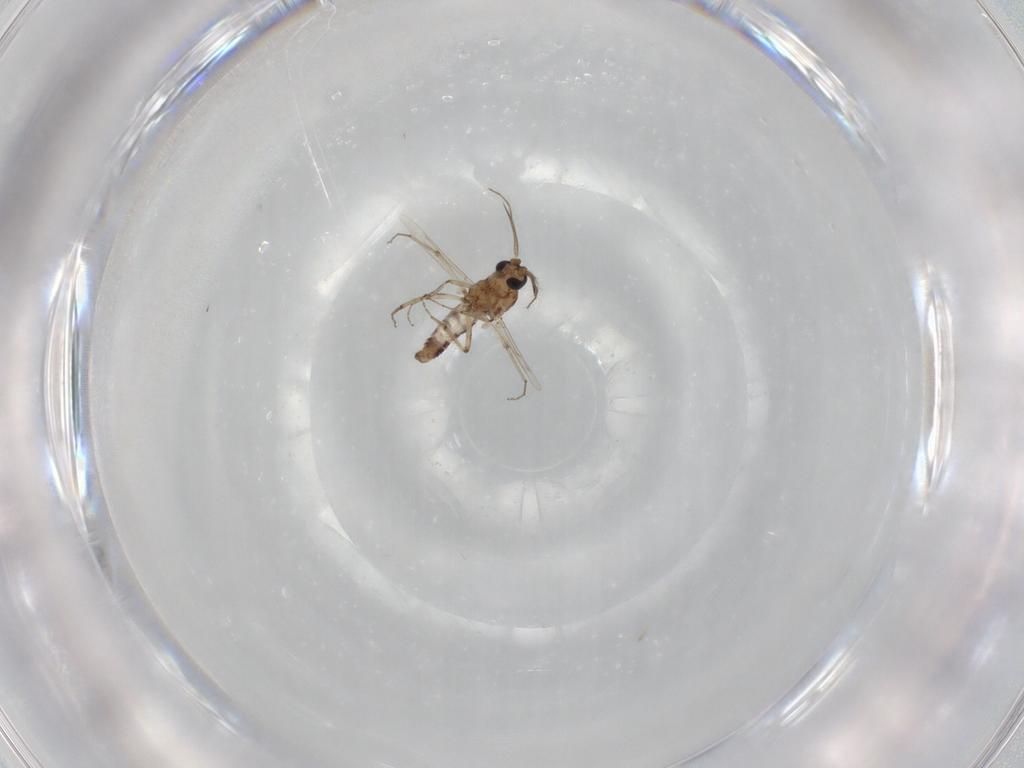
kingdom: Animalia
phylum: Arthropoda
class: Insecta
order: Diptera
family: Ceratopogonidae
